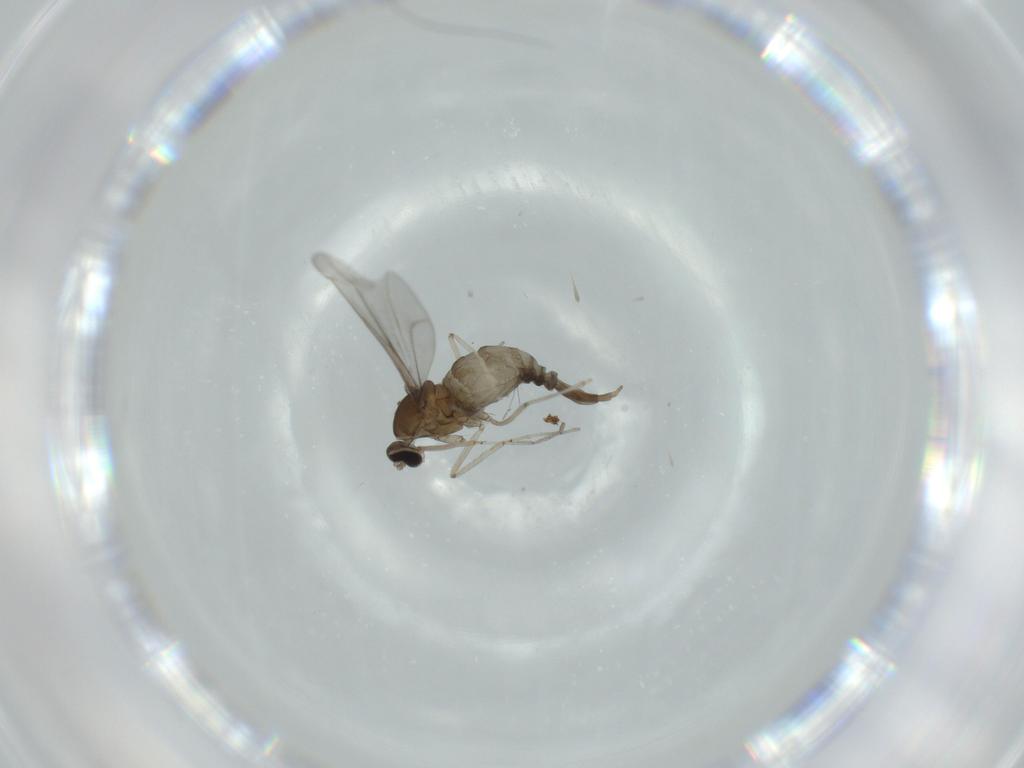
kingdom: Animalia
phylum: Arthropoda
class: Insecta
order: Diptera
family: Cecidomyiidae
